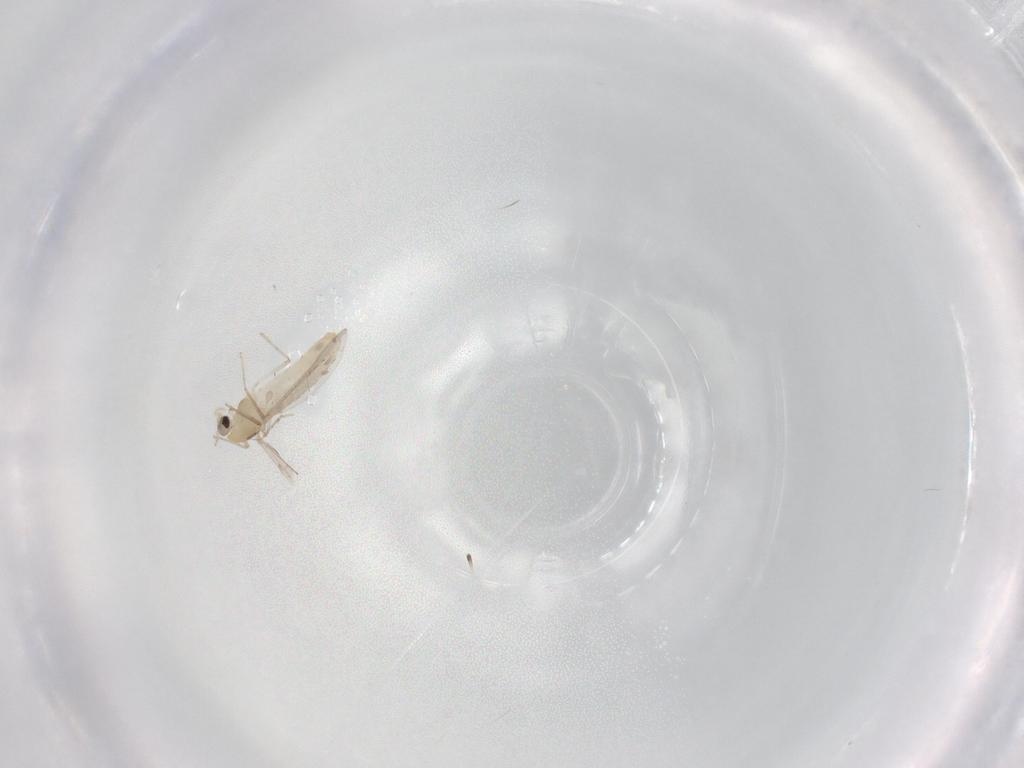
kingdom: Animalia
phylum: Arthropoda
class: Insecta
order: Diptera
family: Chironomidae
